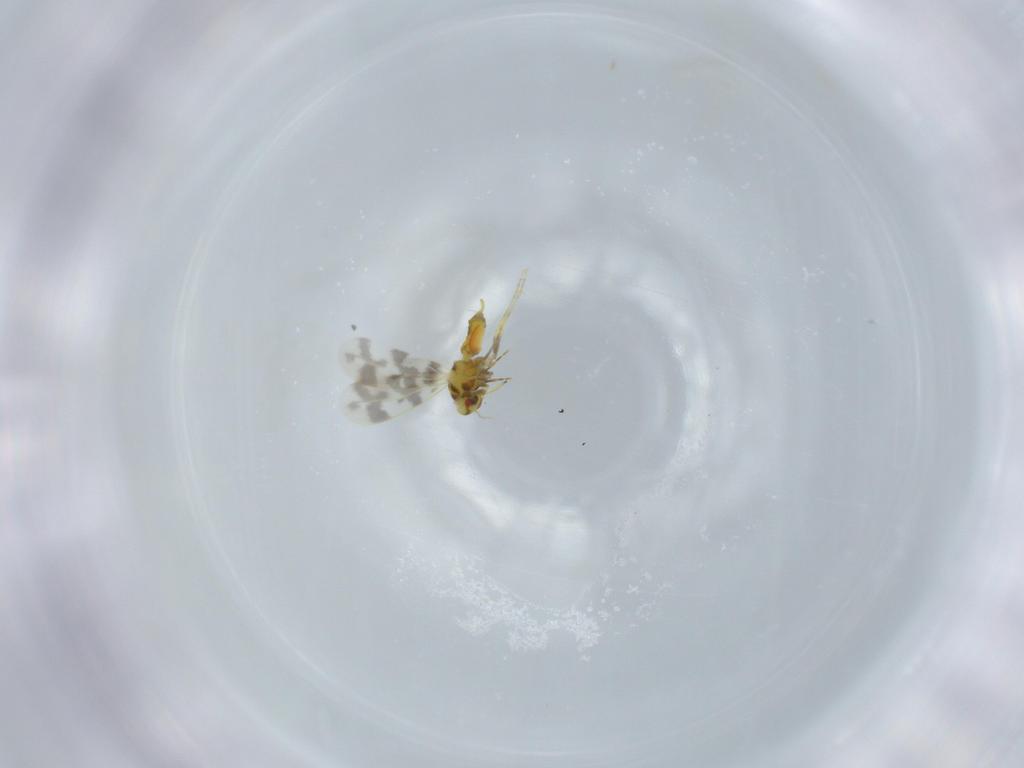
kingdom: Animalia
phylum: Arthropoda
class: Insecta
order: Hemiptera
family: Aleyrodidae
